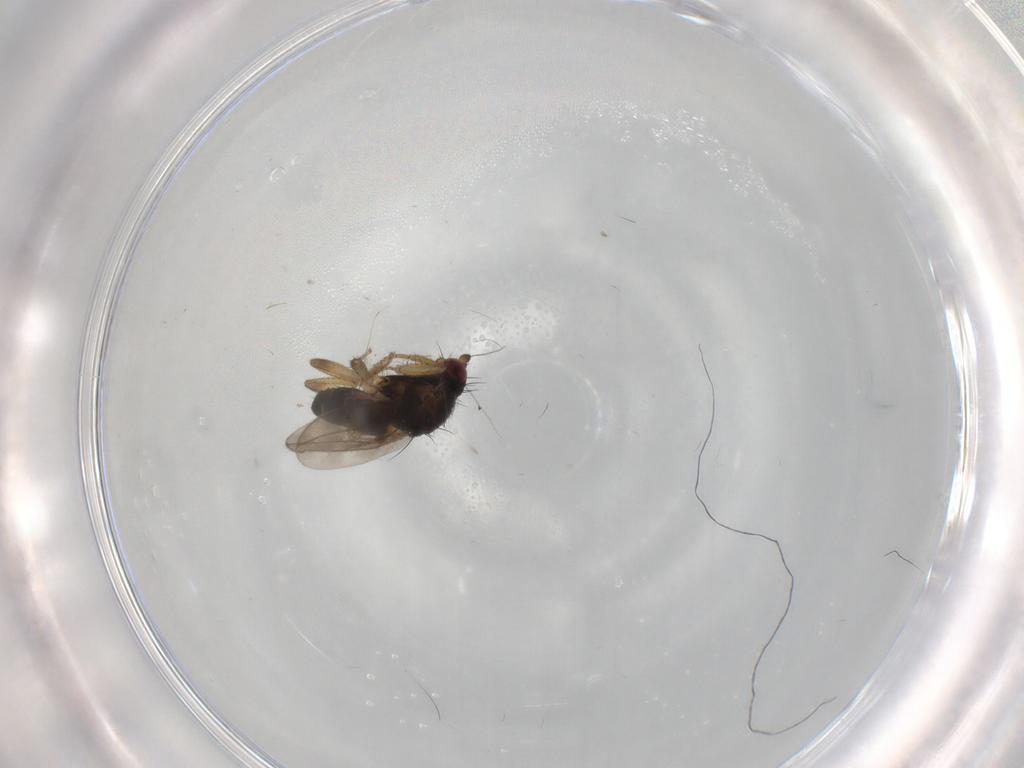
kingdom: Animalia
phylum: Arthropoda
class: Insecta
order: Diptera
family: Sphaeroceridae
